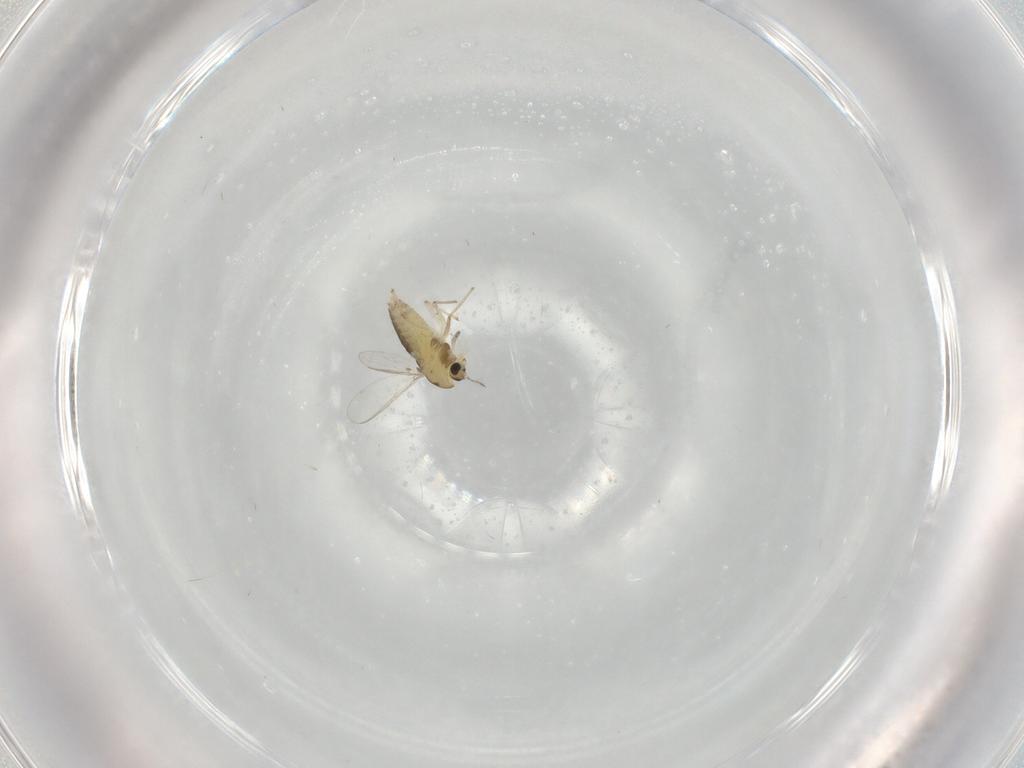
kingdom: Animalia
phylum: Arthropoda
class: Insecta
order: Diptera
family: Chironomidae
